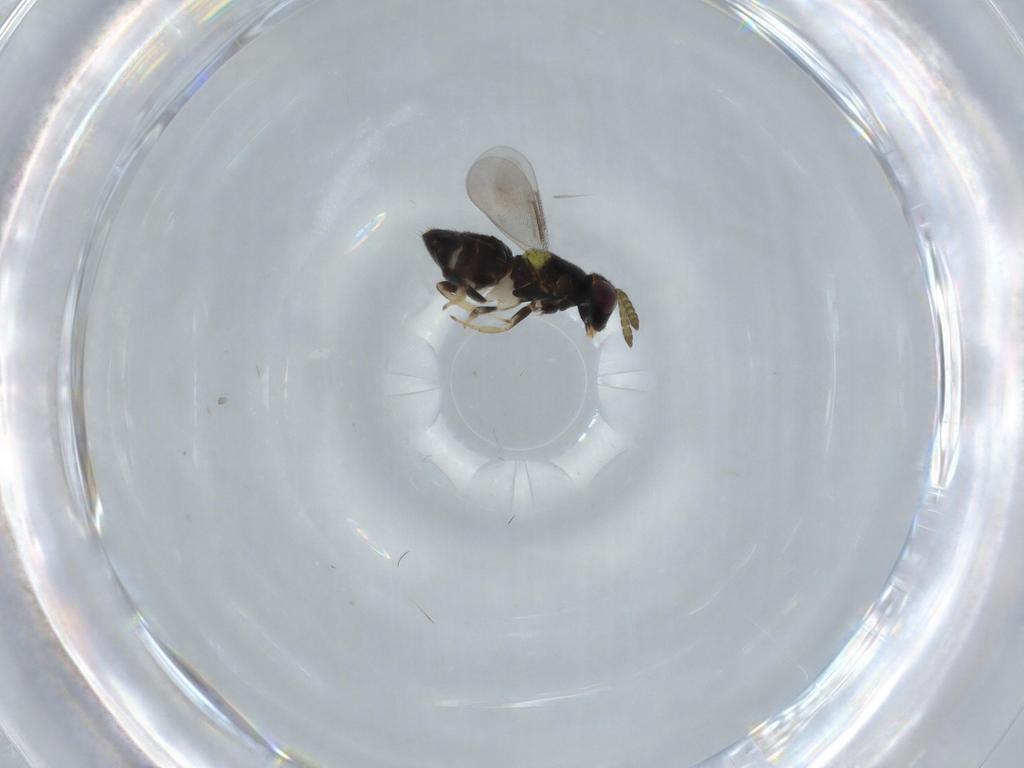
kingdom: Animalia
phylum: Arthropoda
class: Insecta
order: Hymenoptera
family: Aphelinidae
